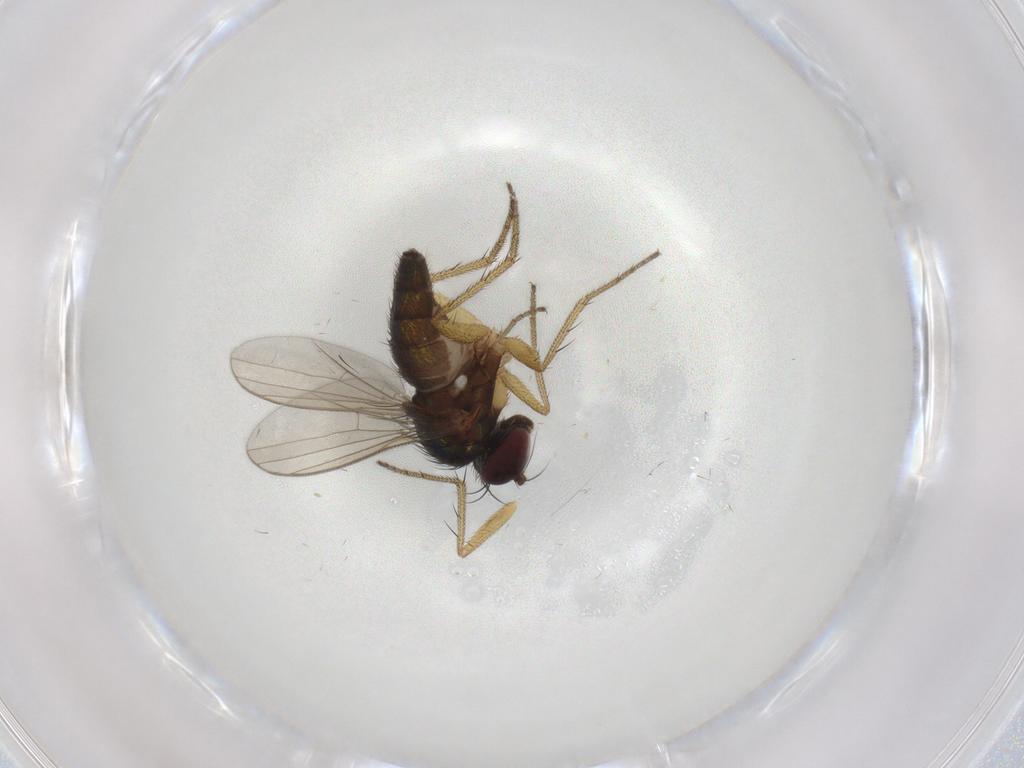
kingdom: Animalia
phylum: Arthropoda
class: Insecta
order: Diptera
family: Dolichopodidae
